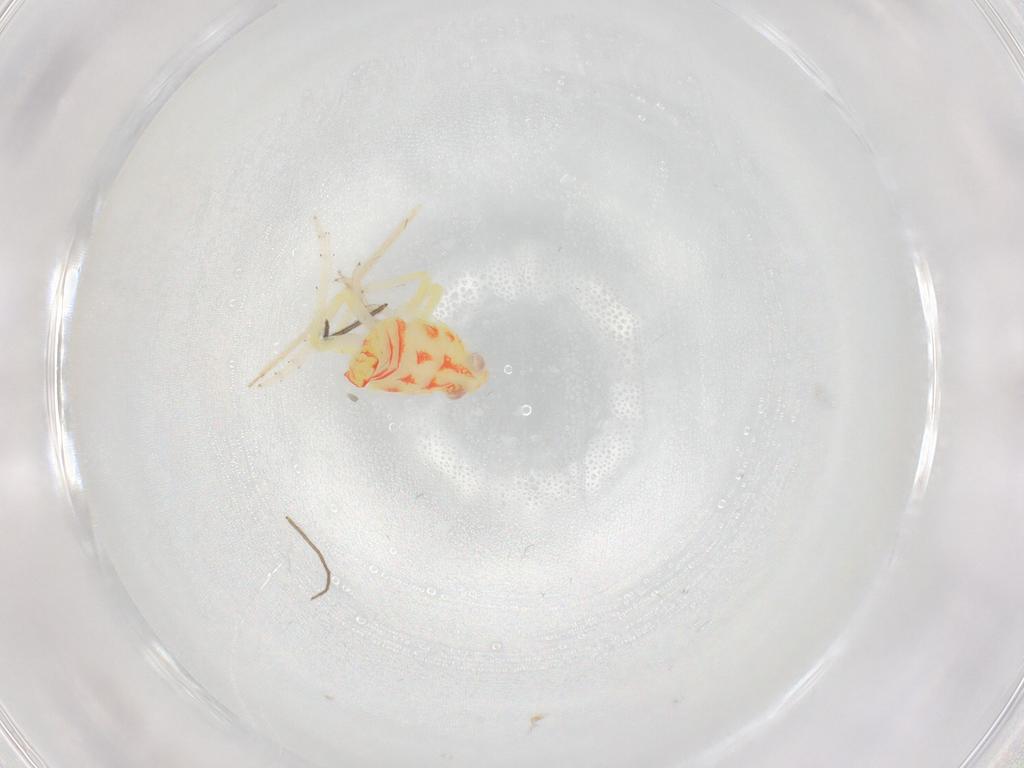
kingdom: Animalia
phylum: Arthropoda
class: Insecta
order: Hemiptera
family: Tropiduchidae
